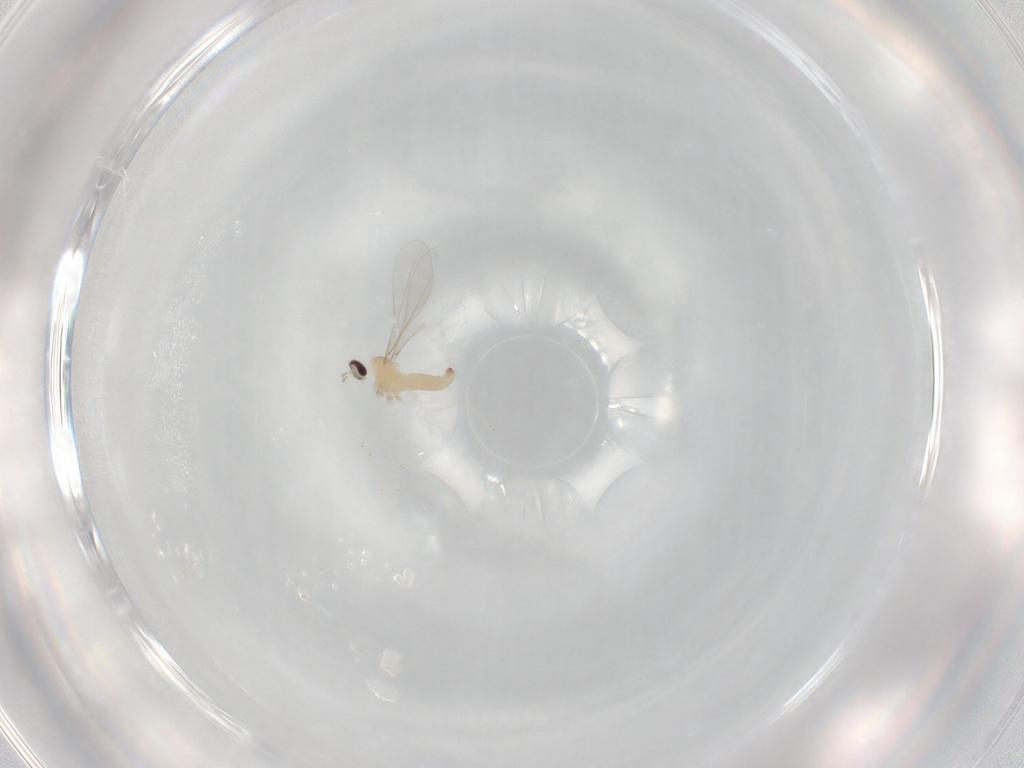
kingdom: Animalia
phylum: Arthropoda
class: Insecta
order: Diptera
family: Cecidomyiidae
